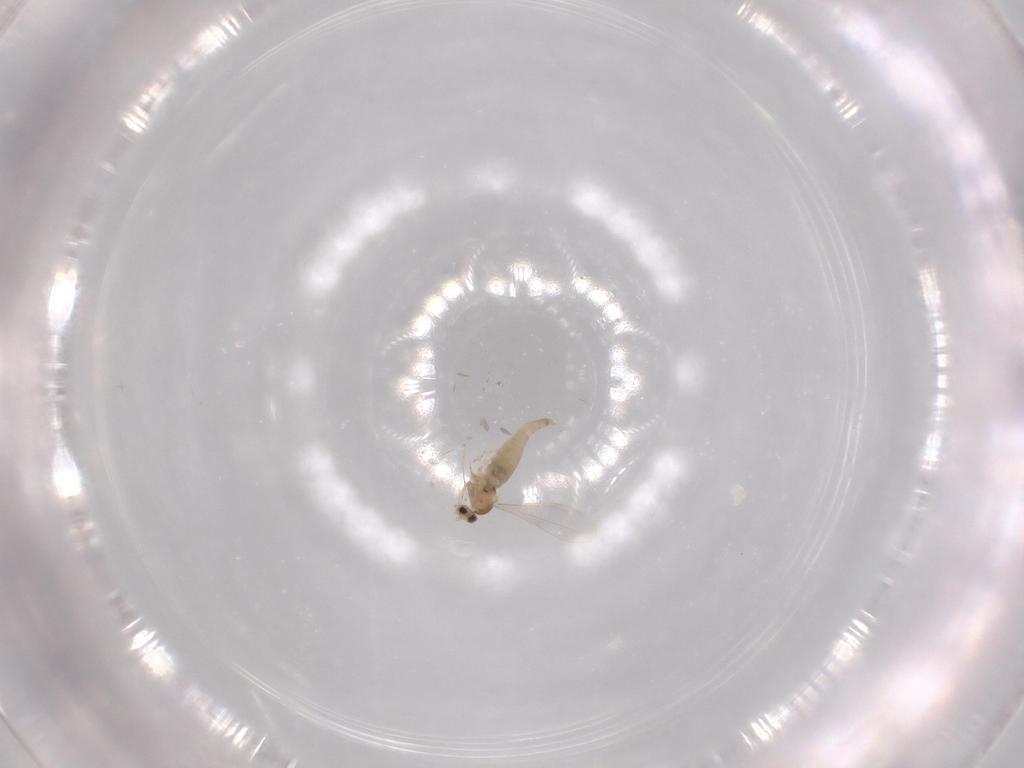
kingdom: Animalia
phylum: Arthropoda
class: Insecta
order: Diptera
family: Cecidomyiidae
